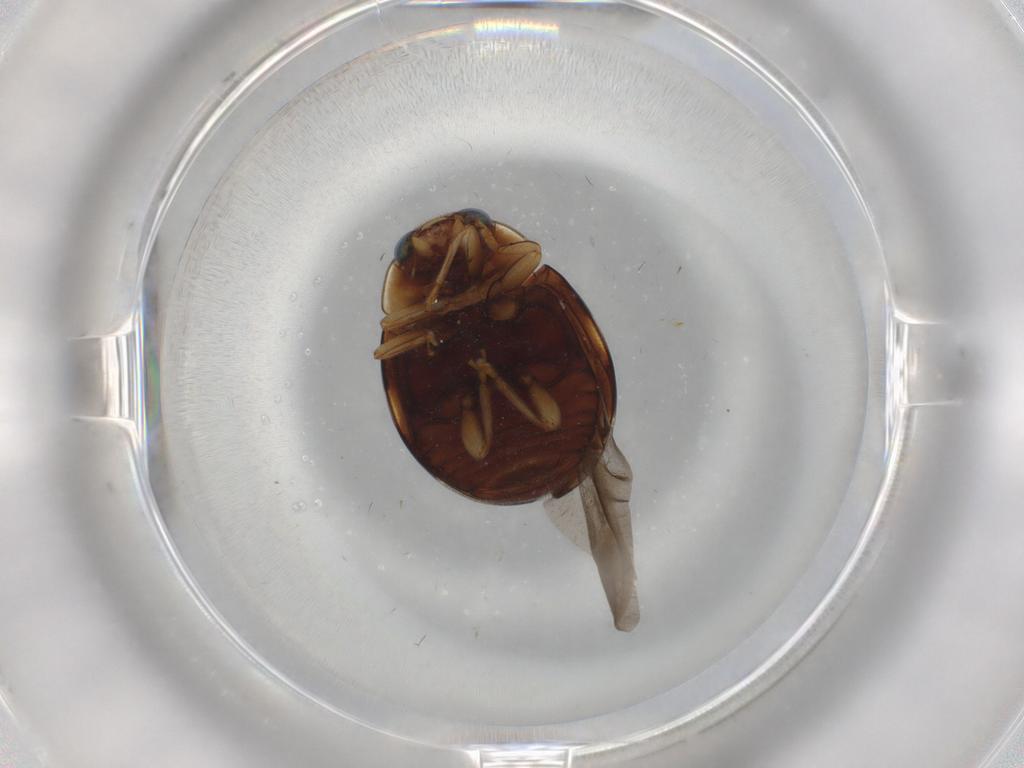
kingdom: Animalia
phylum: Arthropoda
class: Insecta
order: Coleoptera
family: Coccinellidae
